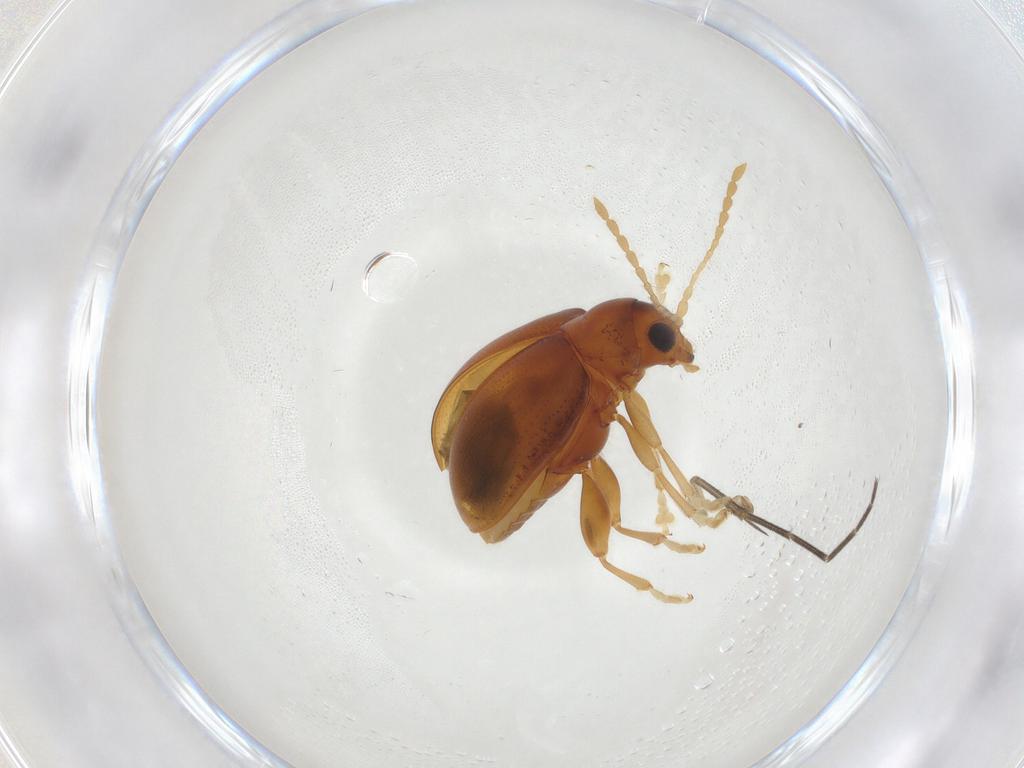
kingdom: Animalia
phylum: Arthropoda
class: Insecta
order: Coleoptera
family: Chrysomelidae
